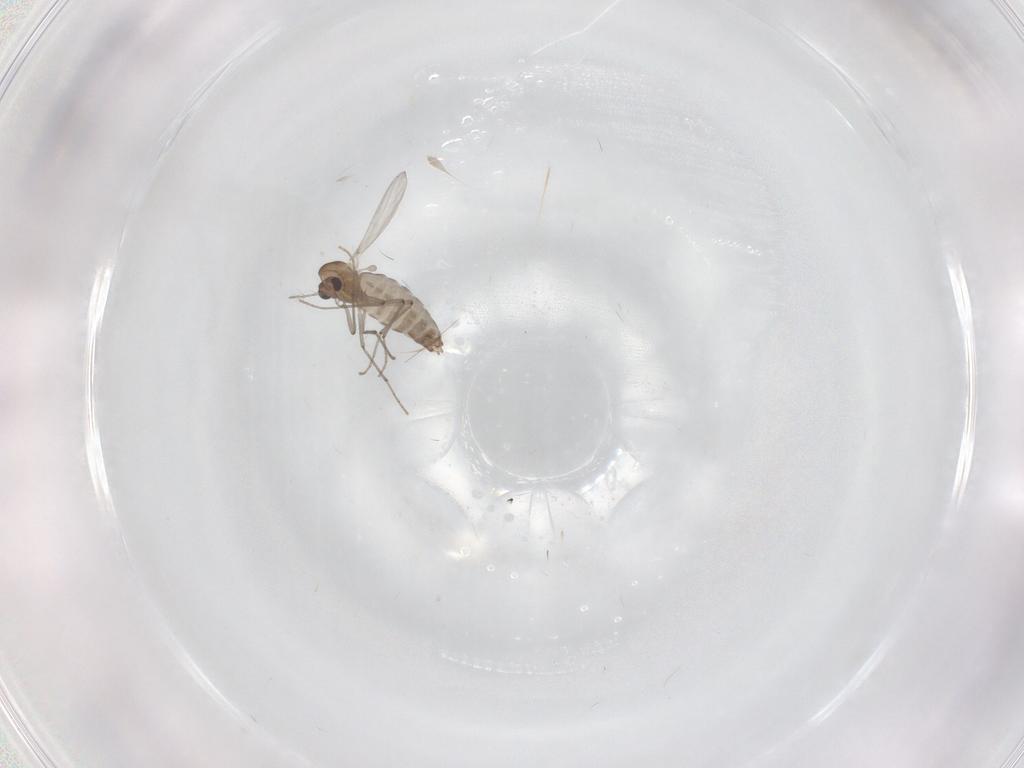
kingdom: Animalia
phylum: Arthropoda
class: Insecta
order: Diptera
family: Chironomidae
